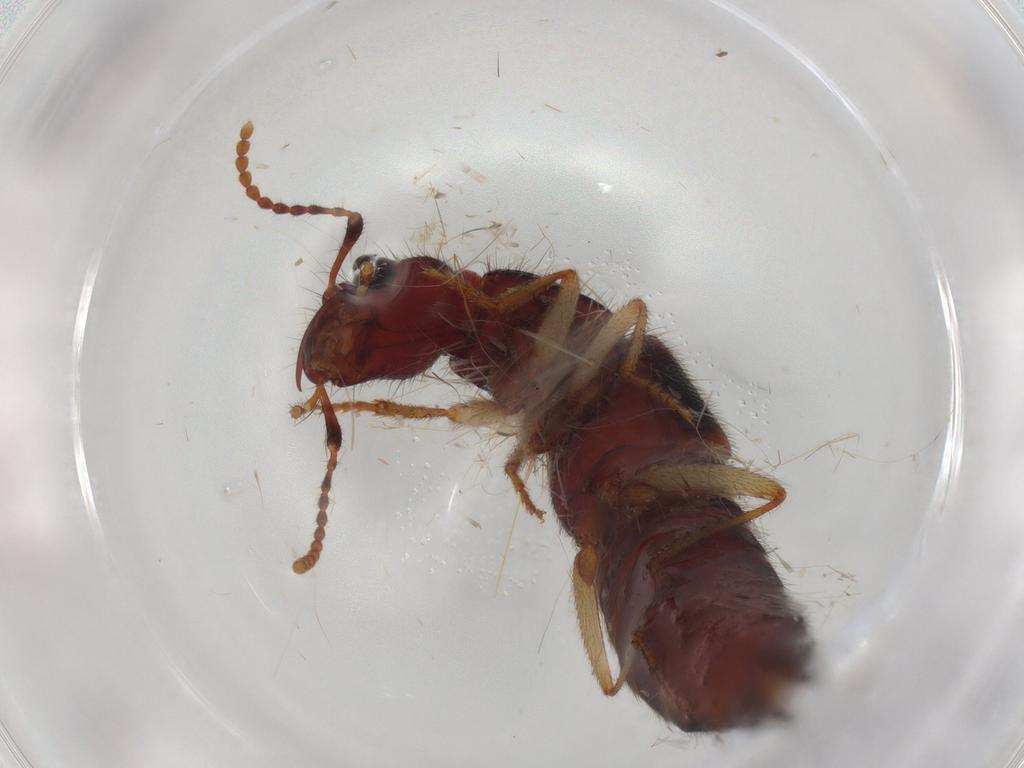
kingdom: Animalia
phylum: Arthropoda
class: Insecta
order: Coleoptera
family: Staphylinidae
